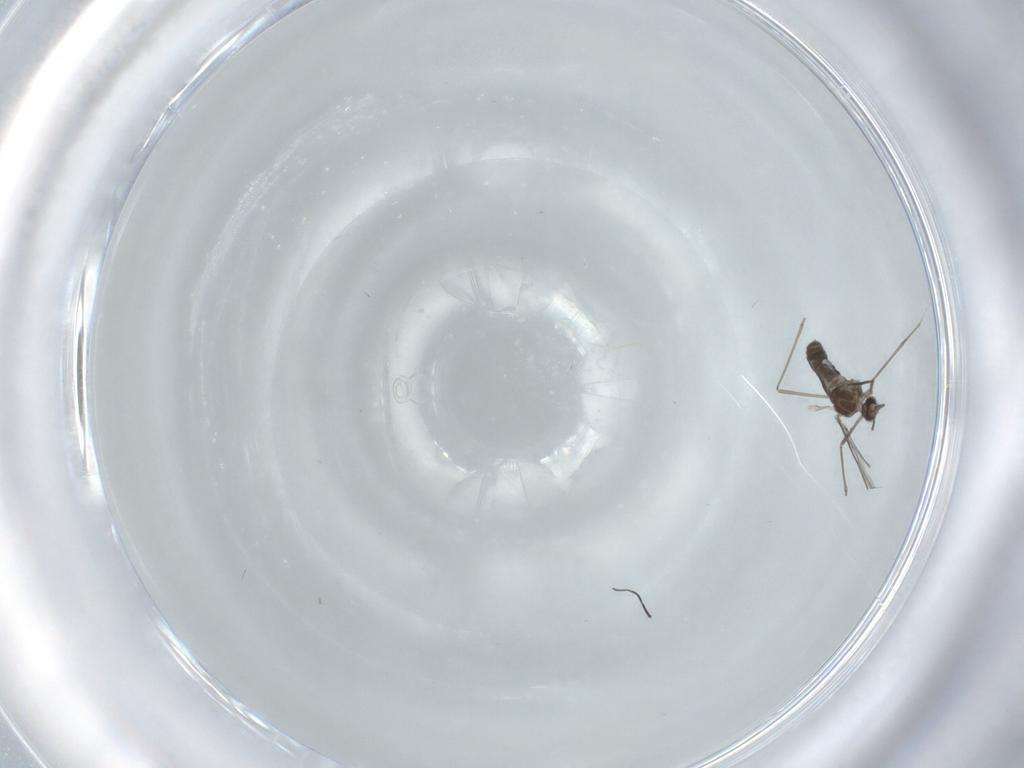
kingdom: Animalia
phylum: Arthropoda
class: Insecta
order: Diptera
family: Cecidomyiidae
